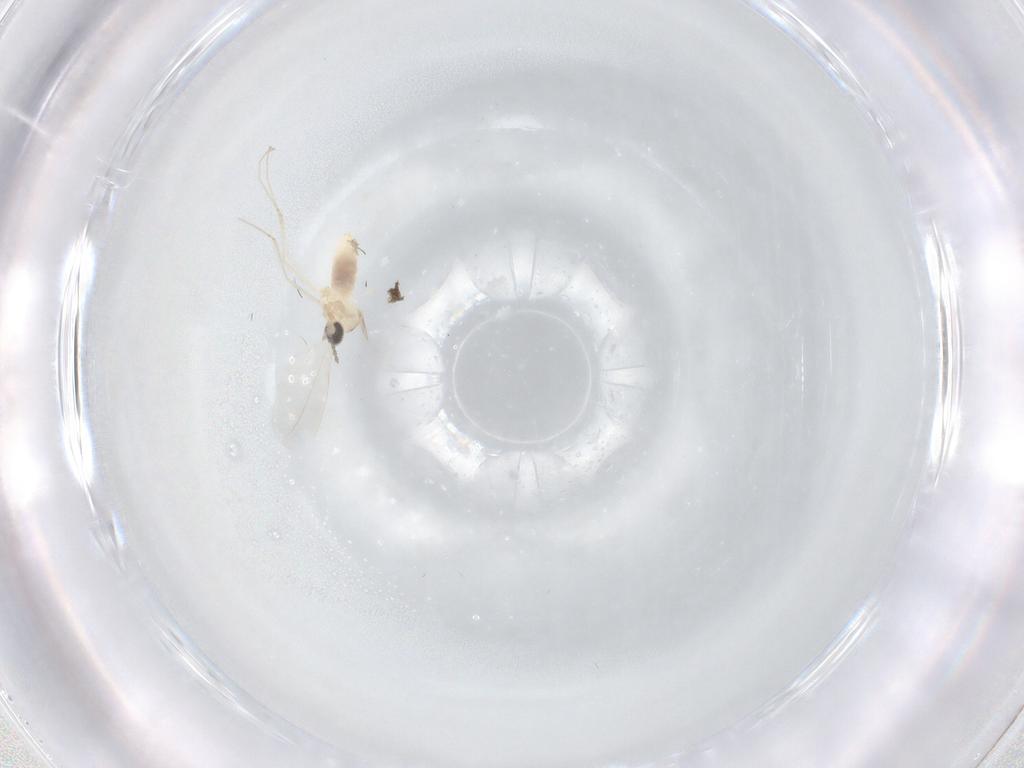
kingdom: Animalia
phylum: Arthropoda
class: Insecta
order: Diptera
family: Cecidomyiidae
